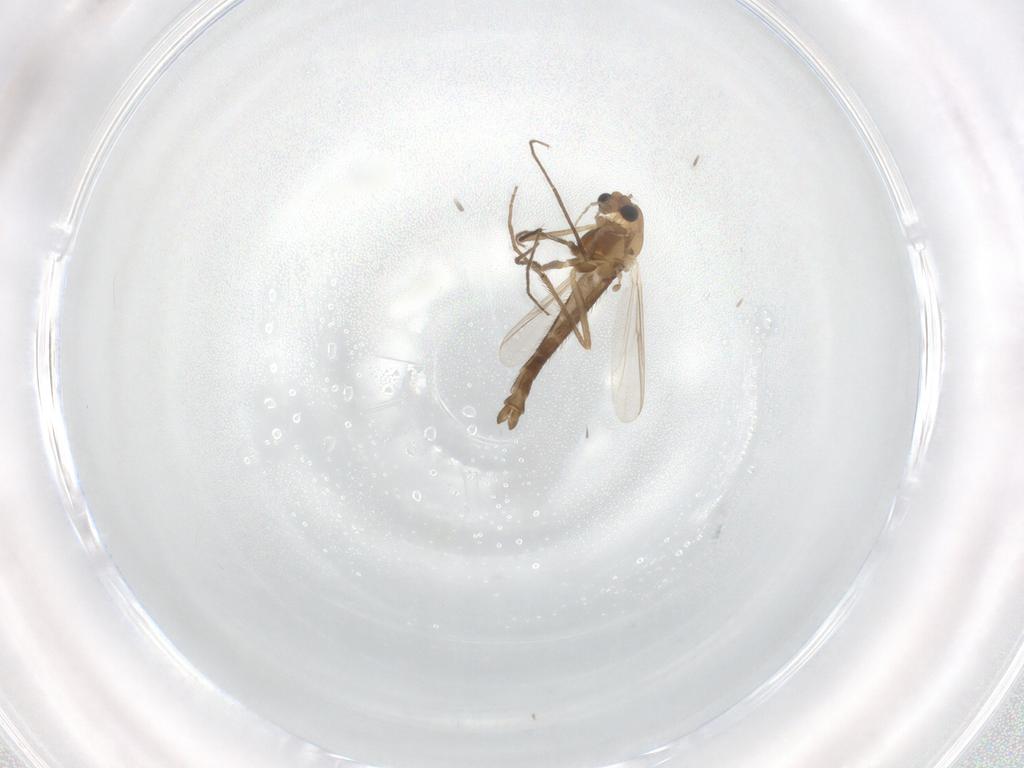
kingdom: Animalia
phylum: Arthropoda
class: Insecta
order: Diptera
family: Chironomidae
